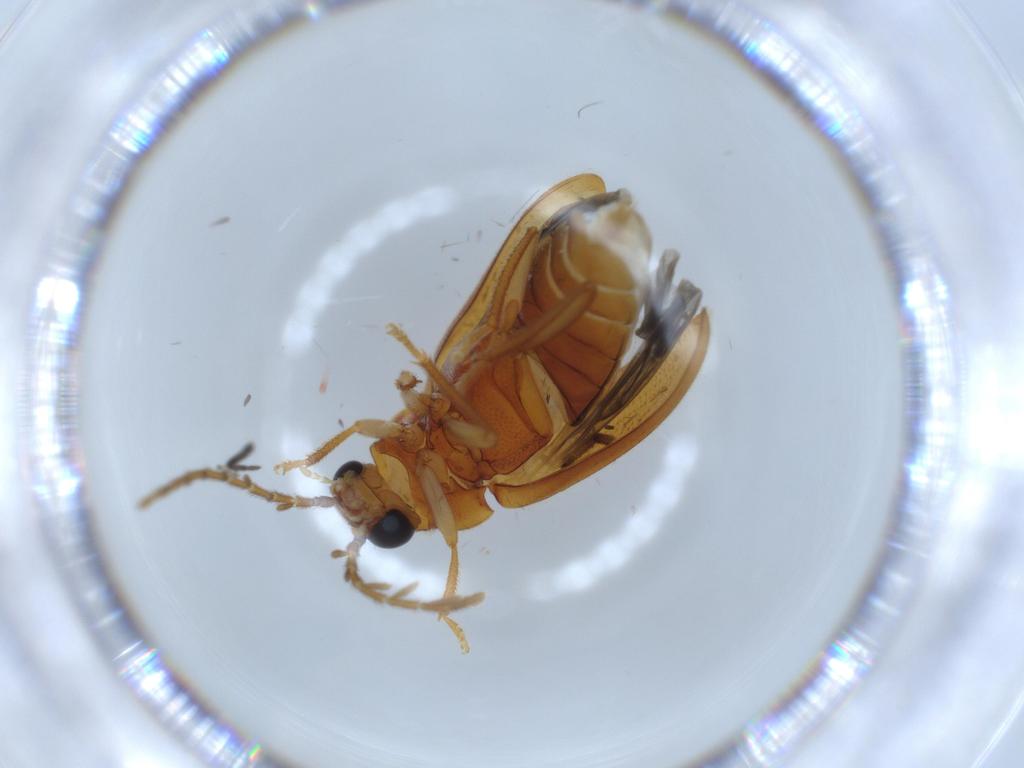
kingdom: Animalia
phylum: Arthropoda
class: Insecta
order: Coleoptera
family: Ptilodactylidae
